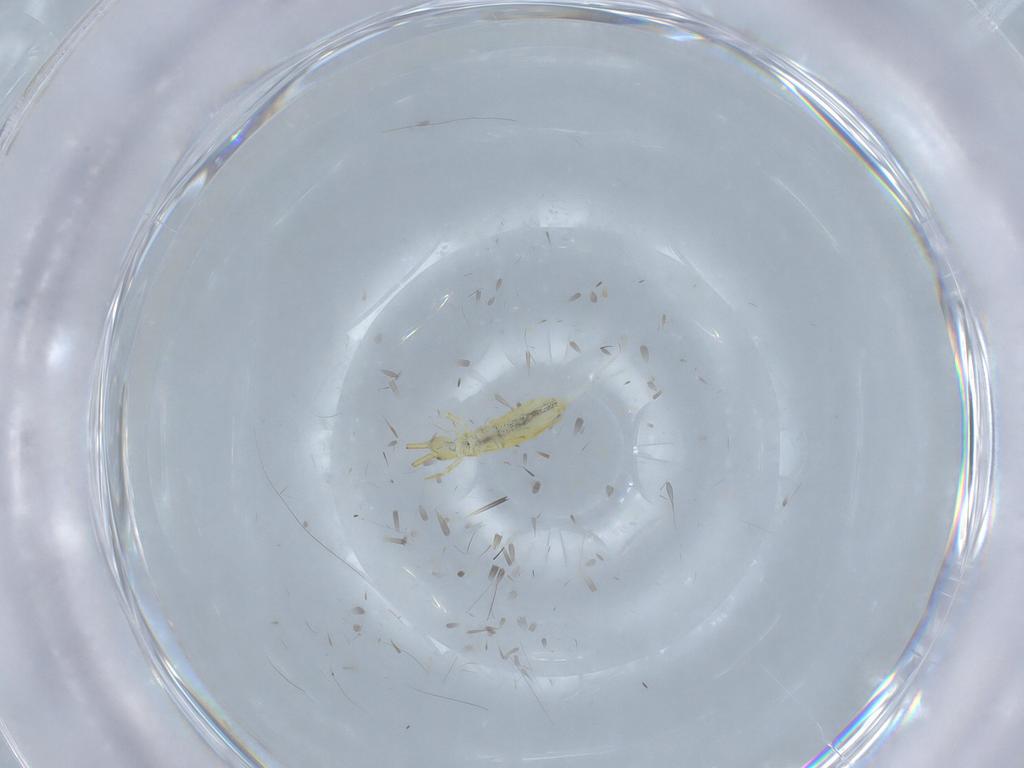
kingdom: Animalia
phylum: Arthropoda
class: Collembola
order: Entomobryomorpha
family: Paronellidae
